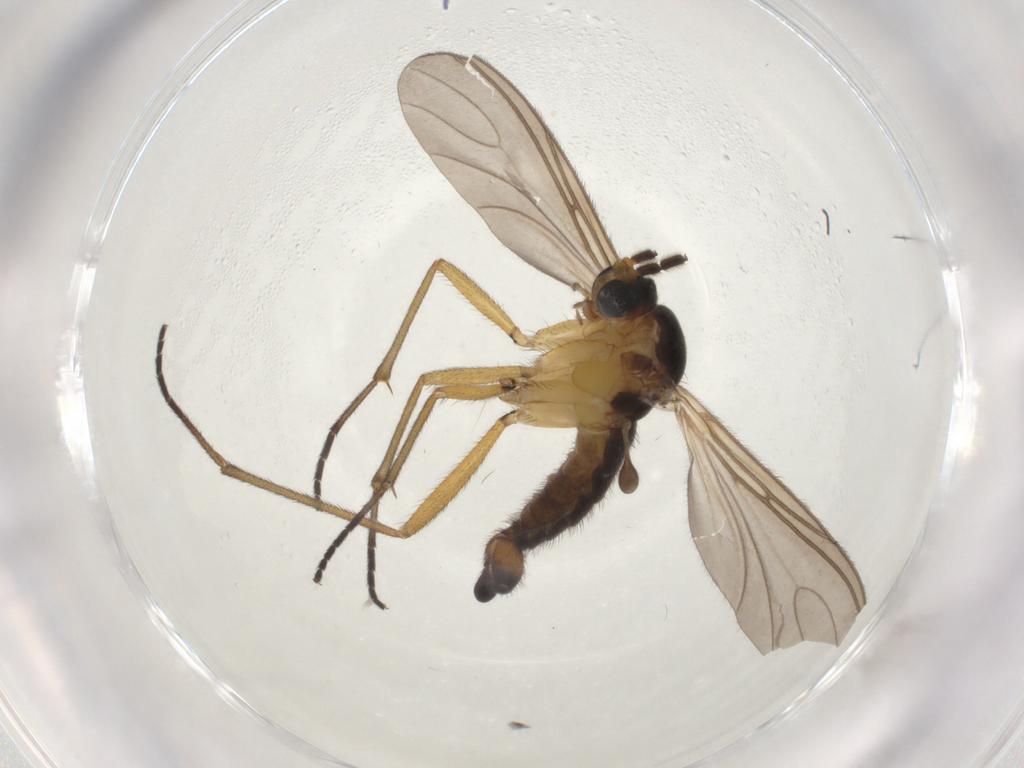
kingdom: Animalia
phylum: Arthropoda
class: Insecta
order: Diptera
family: Sciaridae
